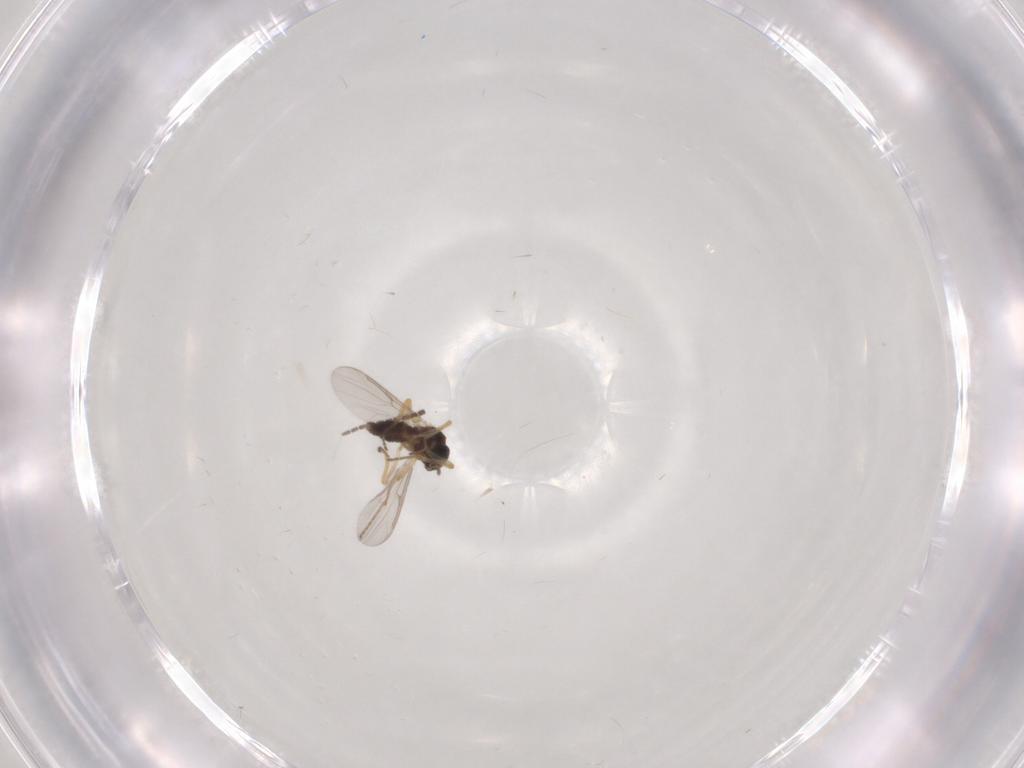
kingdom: Animalia
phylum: Arthropoda
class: Insecta
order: Diptera
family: Ceratopogonidae
